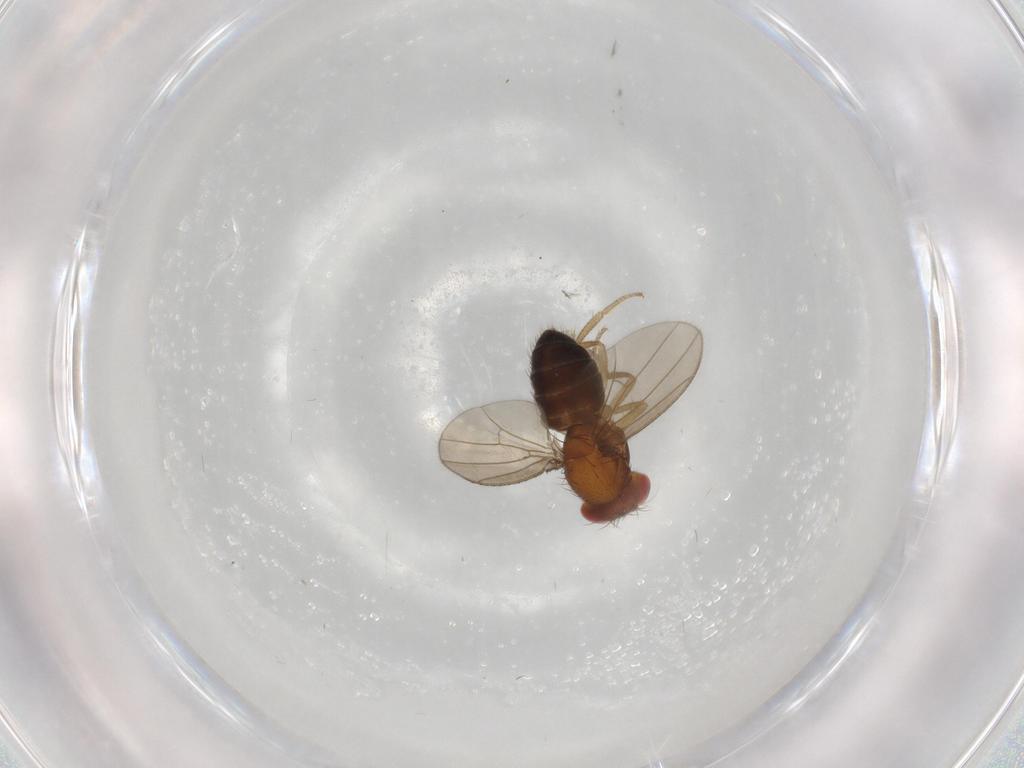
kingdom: Animalia
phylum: Arthropoda
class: Insecta
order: Diptera
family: Drosophilidae
